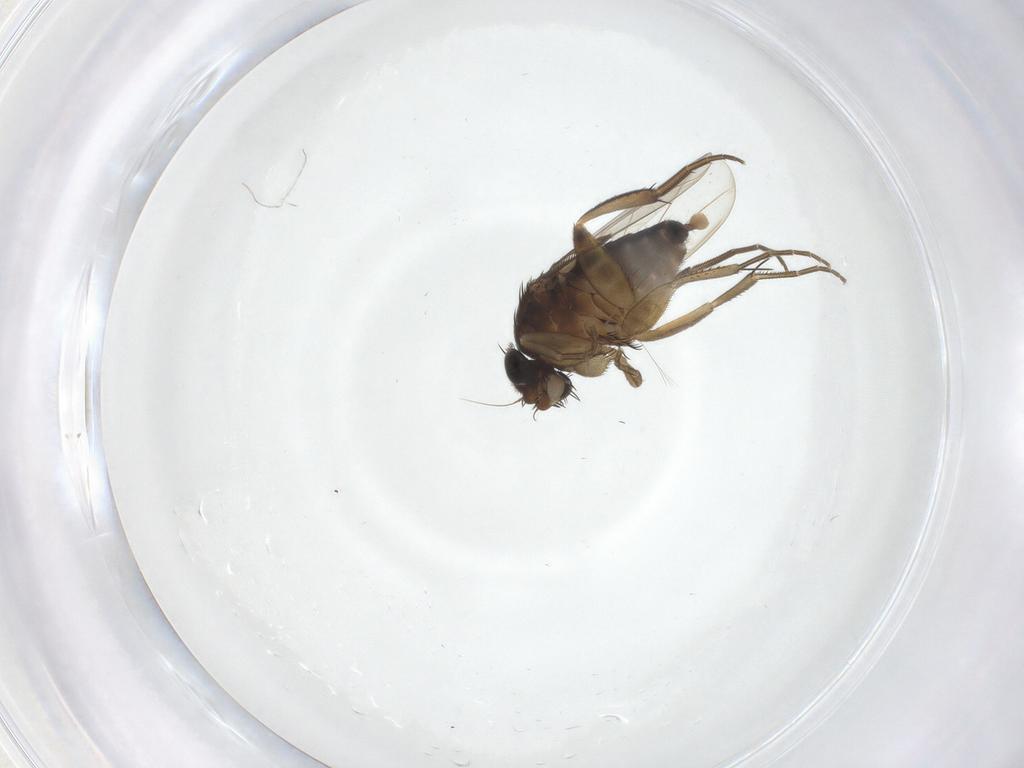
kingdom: Animalia
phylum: Arthropoda
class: Insecta
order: Diptera
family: Phoridae
